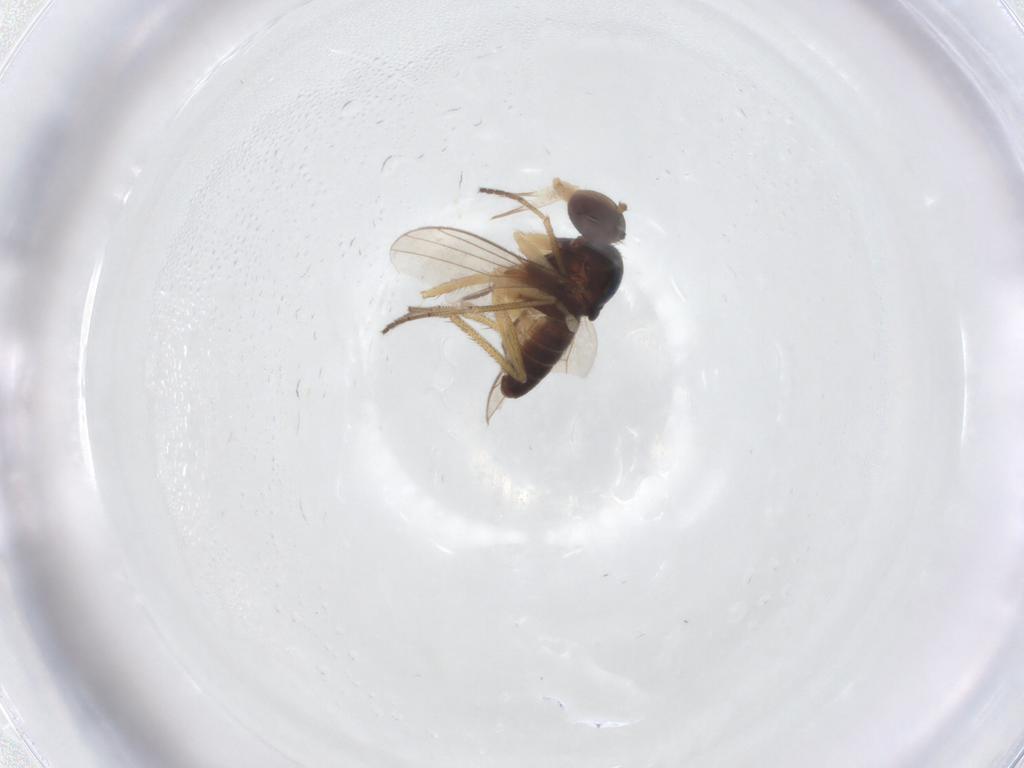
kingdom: Animalia
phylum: Arthropoda
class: Insecta
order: Diptera
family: Dolichopodidae
